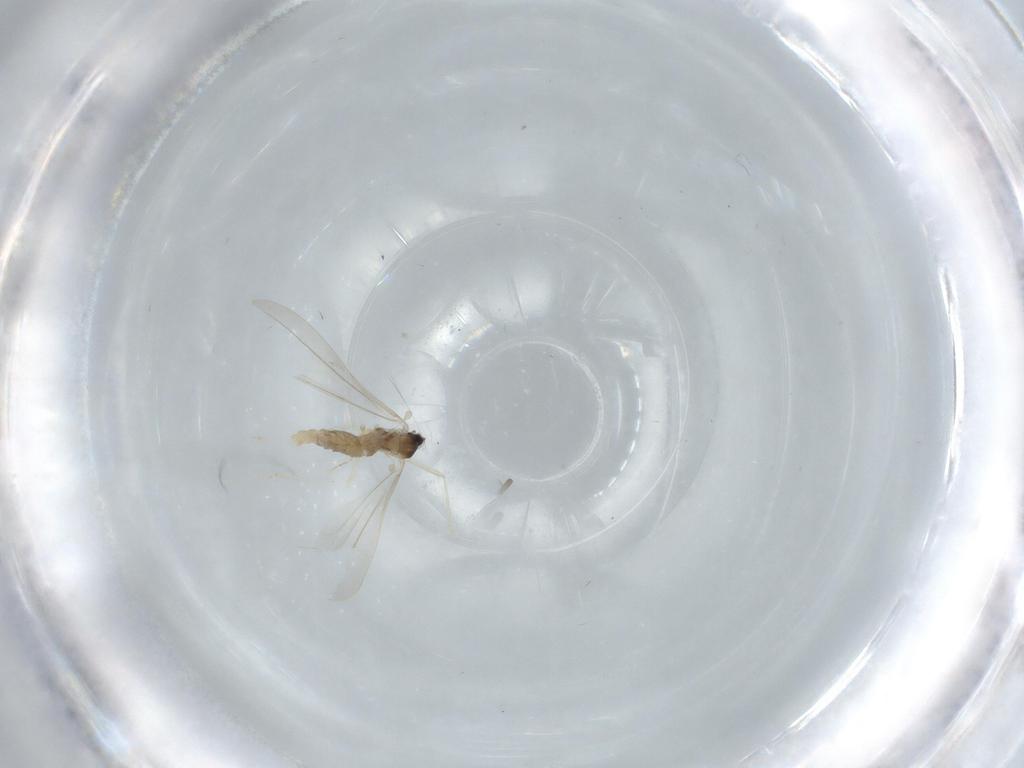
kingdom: Animalia
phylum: Arthropoda
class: Insecta
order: Diptera
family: Cecidomyiidae
